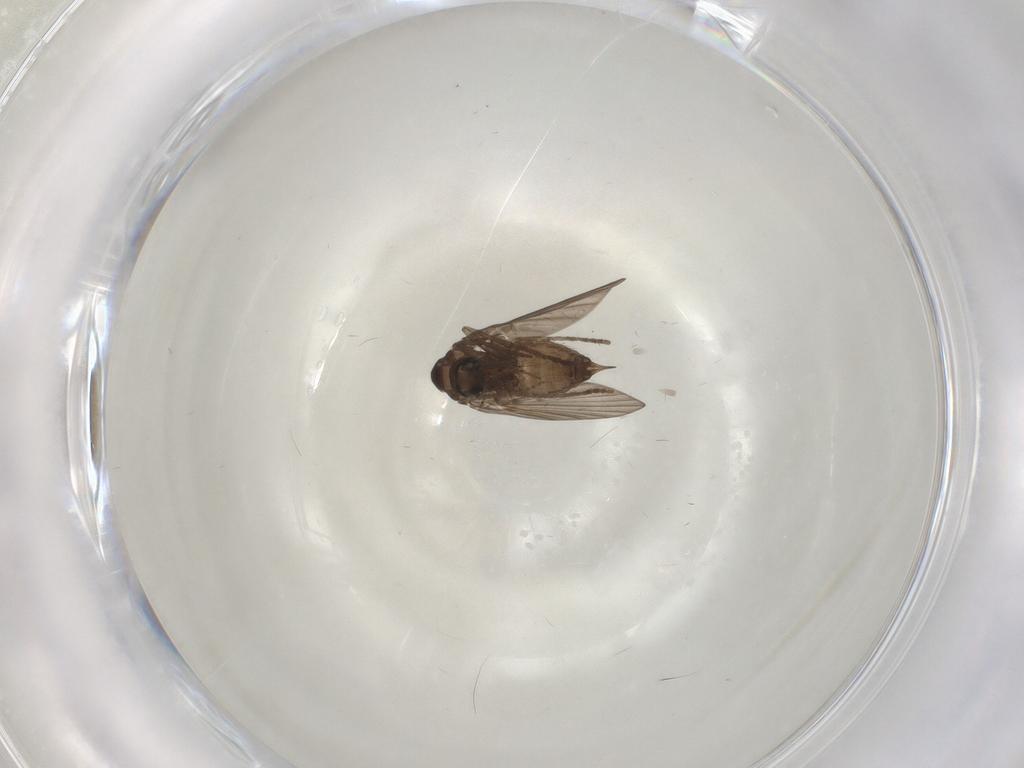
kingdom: Animalia
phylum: Arthropoda
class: Insecta
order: Diptera
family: Psychodidae
